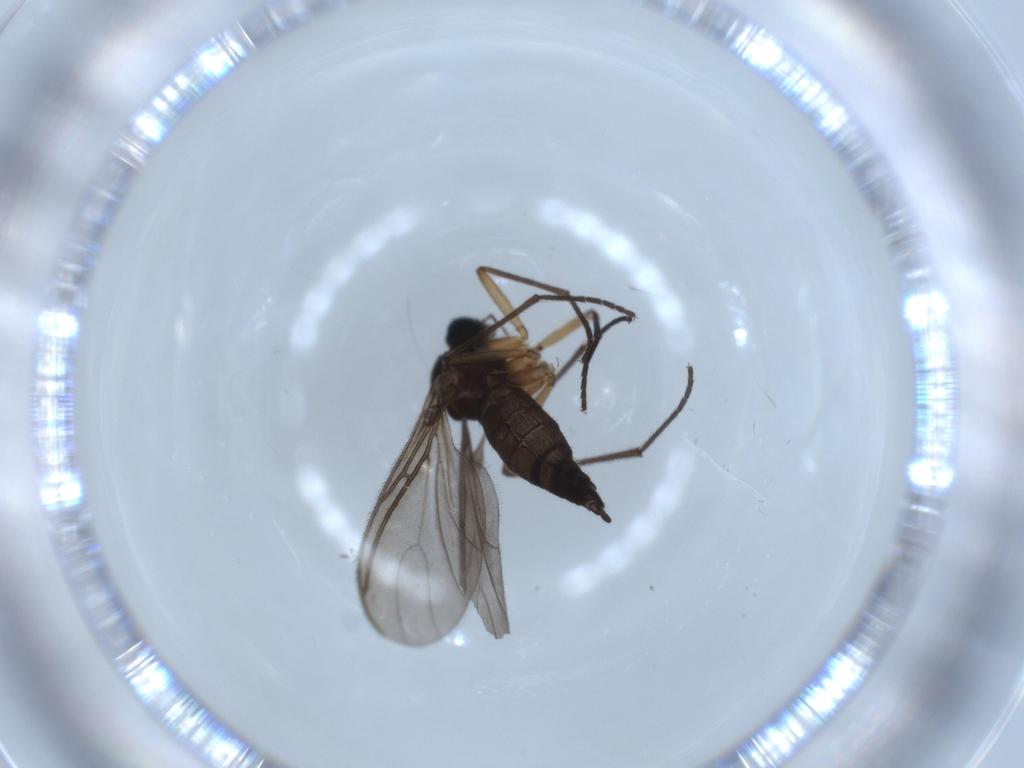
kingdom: Animalia
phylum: Arthropoda
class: Insecta
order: Diptera
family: Sciaridae
